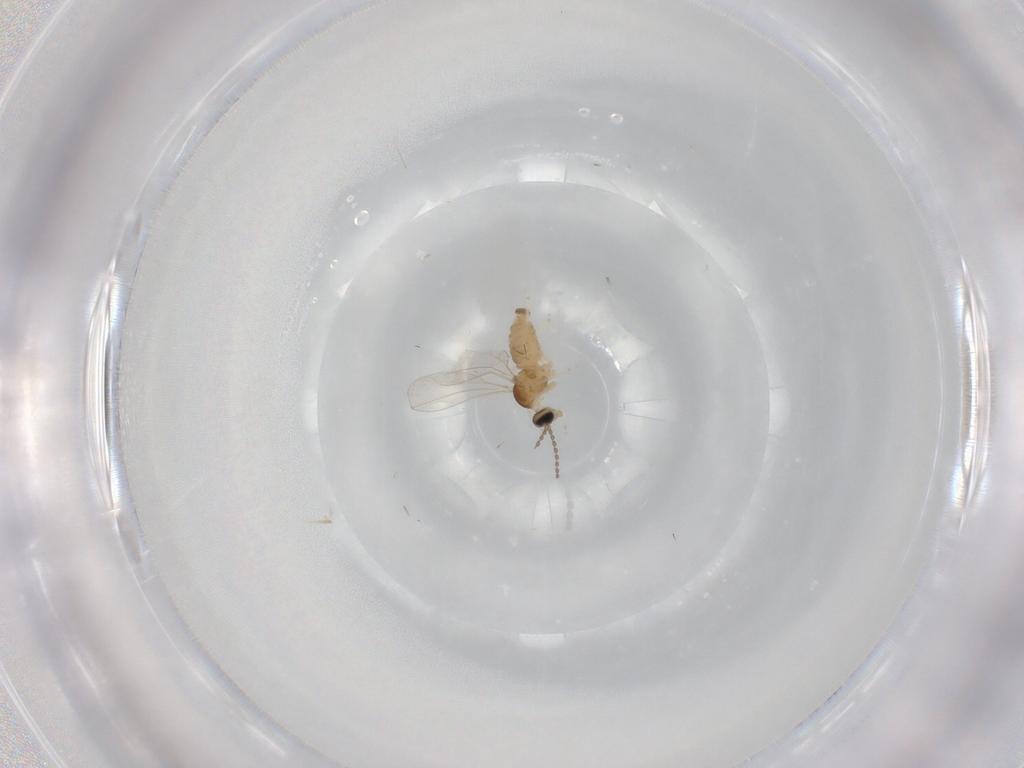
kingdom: Animalia
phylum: Arthropoda
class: Insecta
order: Diptera
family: Cecidomyiidae
